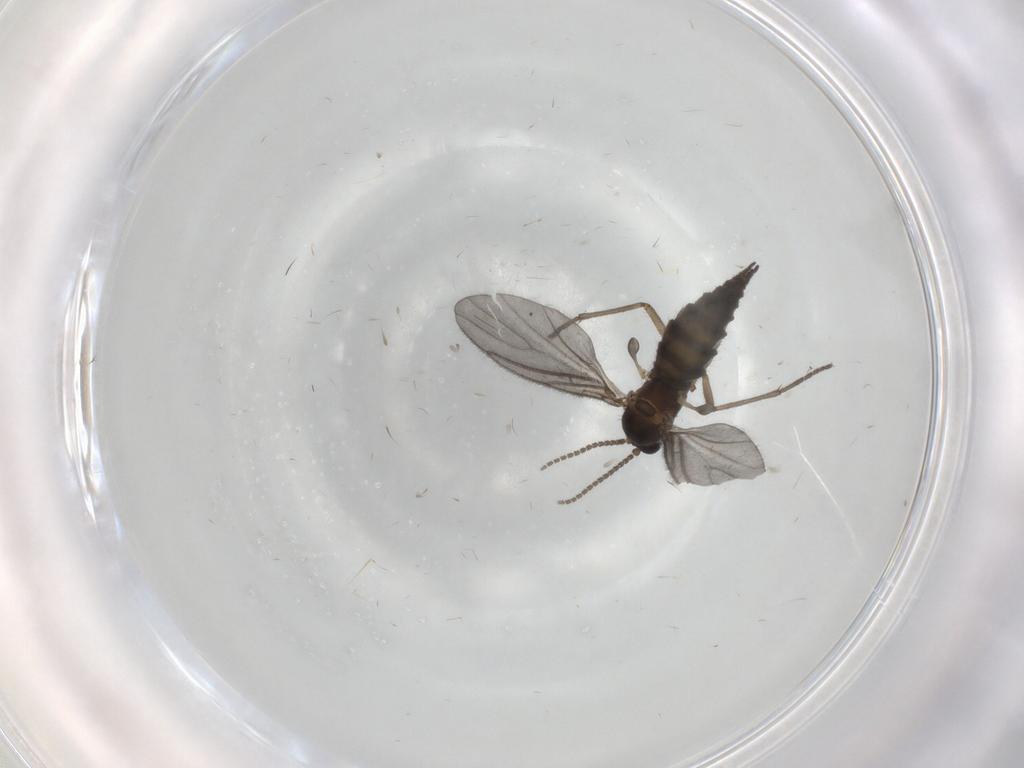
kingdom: Animalia
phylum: Arthropoda
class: Insecta
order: Diptera
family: Sciaridae
